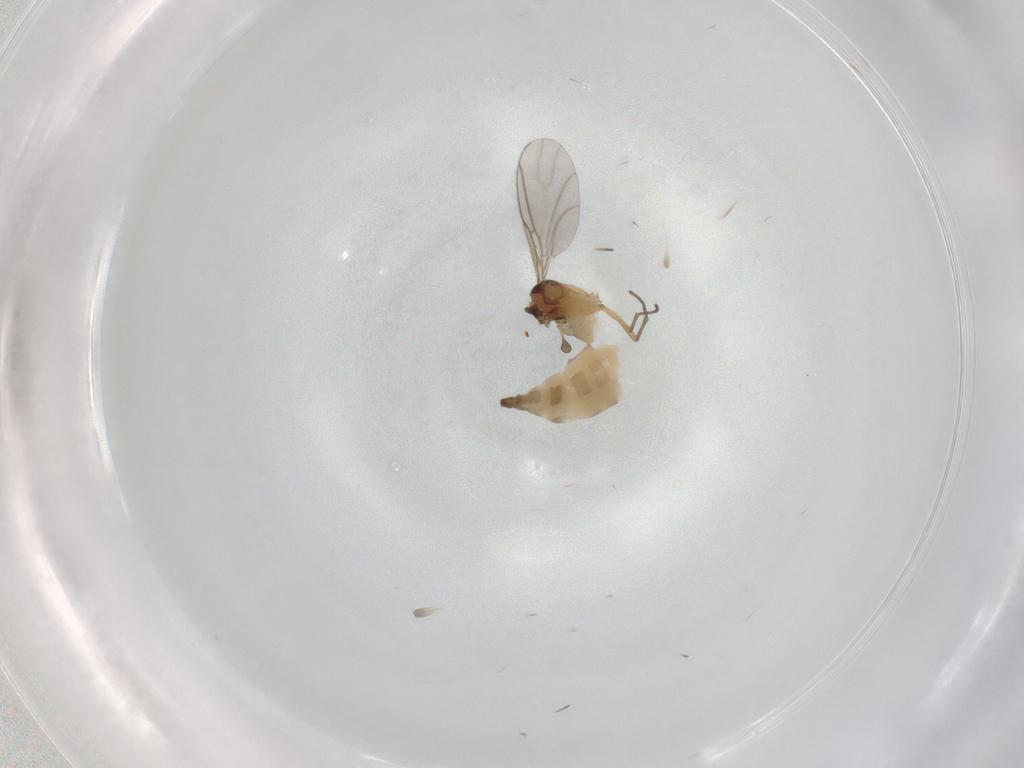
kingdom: Animalia
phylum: Arthropoda
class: Insecta
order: Diptera
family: Sciaridae
